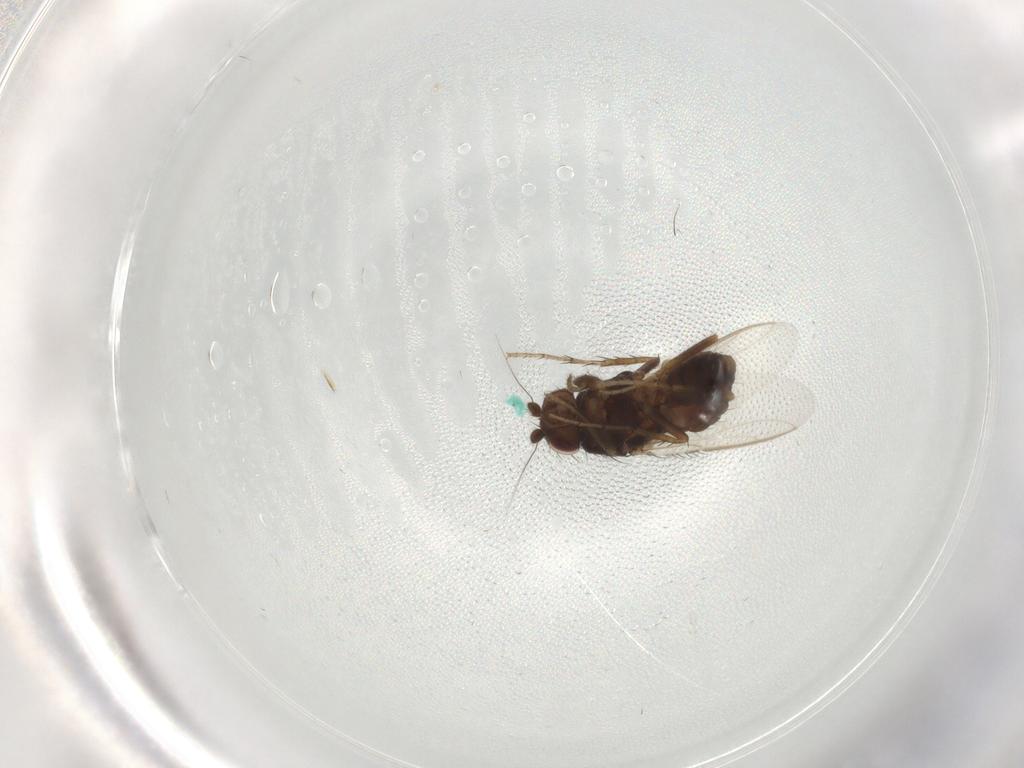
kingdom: Animalia
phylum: Arthropoda
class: Insecta
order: Diptera
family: Sphaeroceridae
